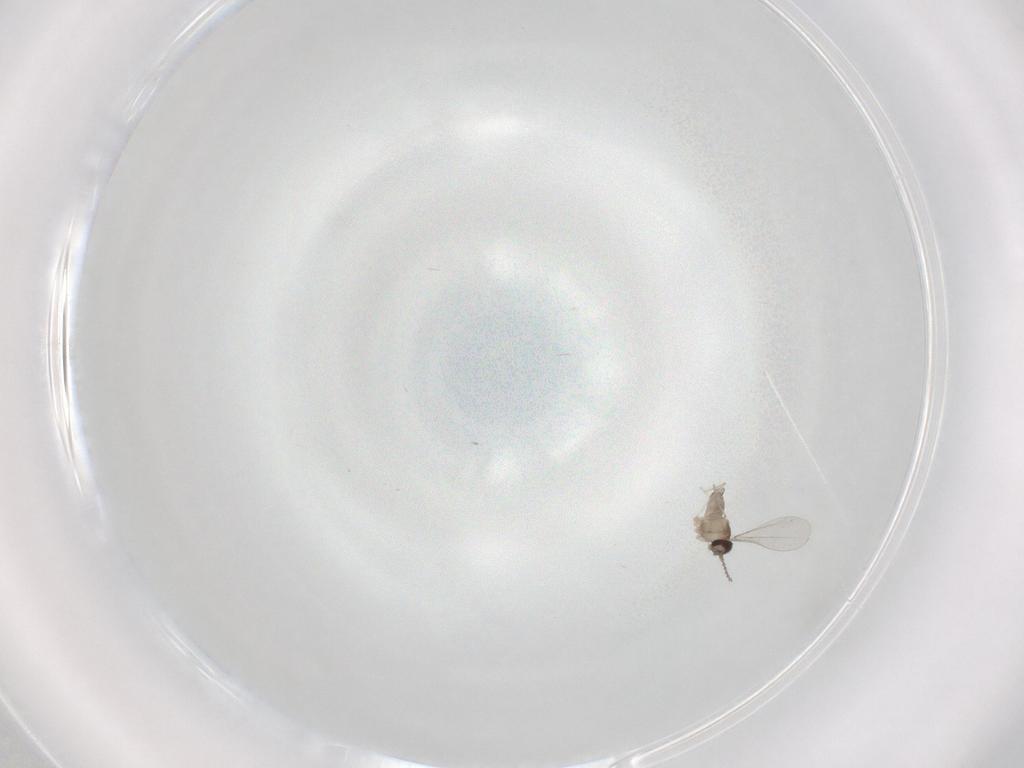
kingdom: Animalia
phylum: Arthropoda
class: Insecta
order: Diptera
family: Cecidomyiidae
